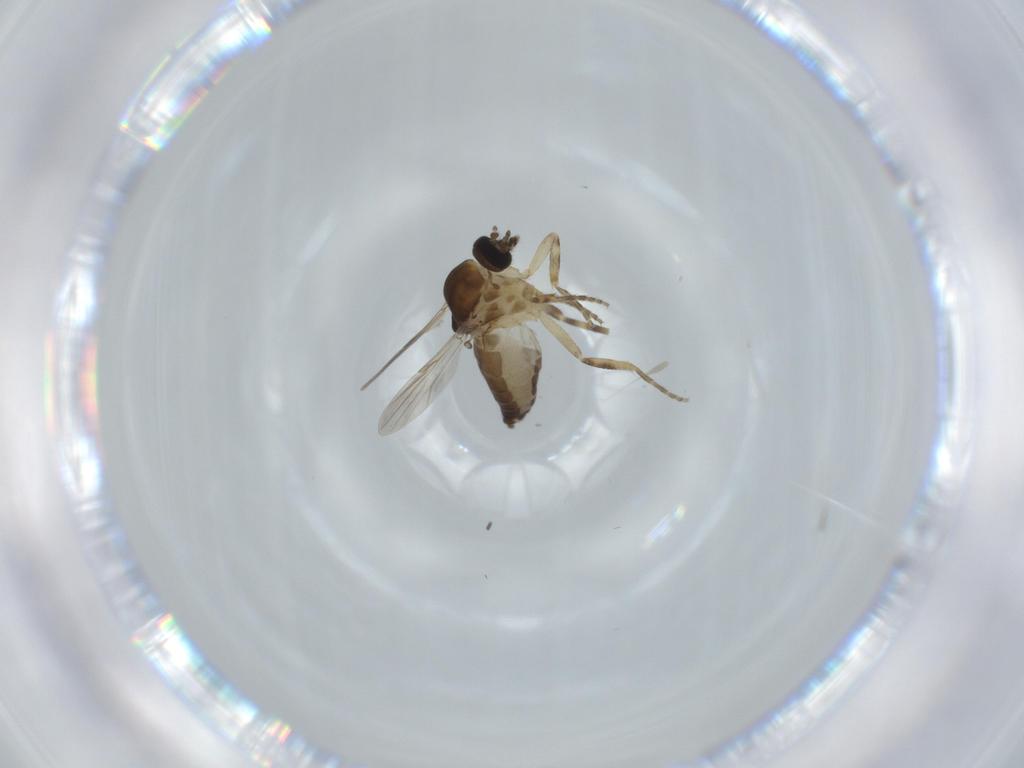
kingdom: Animalia
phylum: Arthropoda
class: Insecta
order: Diptera
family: Ceratopogonidae
